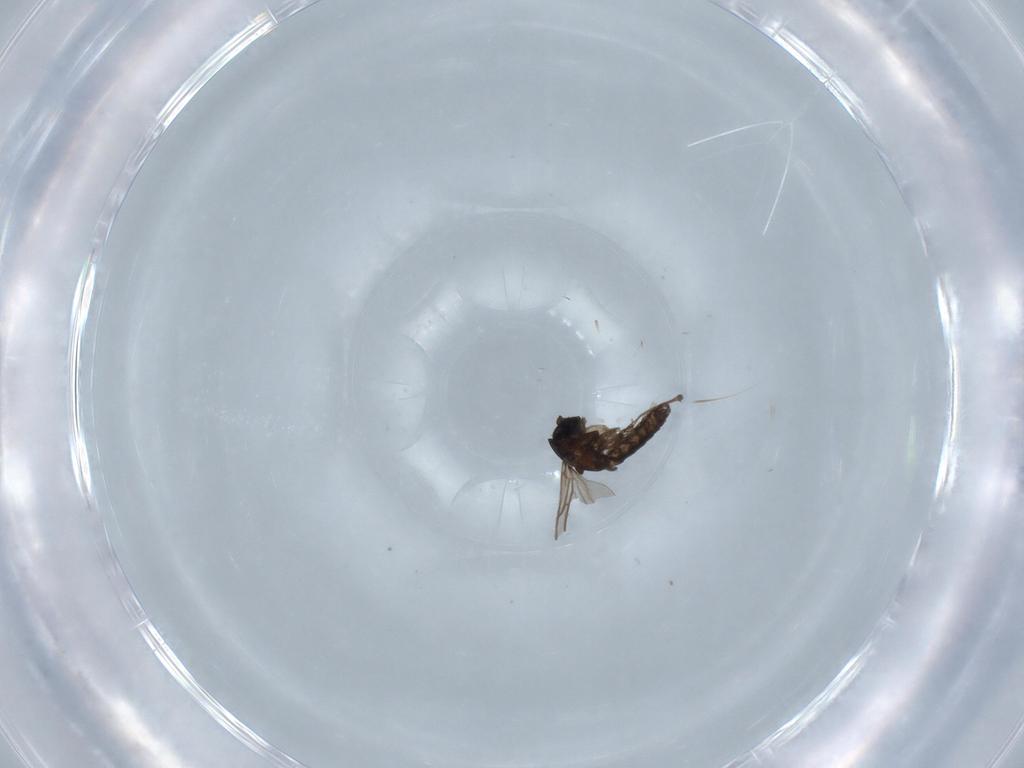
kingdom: Animalia
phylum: Arthropoda
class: Insecta
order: Diptera
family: Sciaridae
